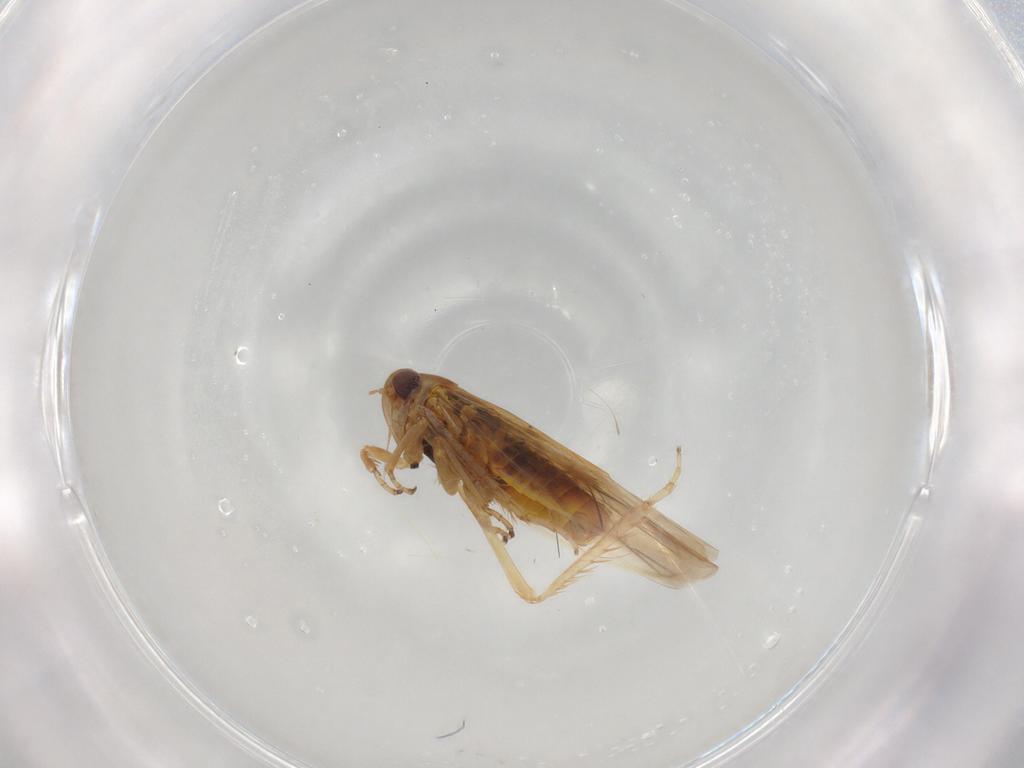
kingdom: Animalia
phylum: Arthropoda
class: Insecta
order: Hemiptera
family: Cicadellidae
